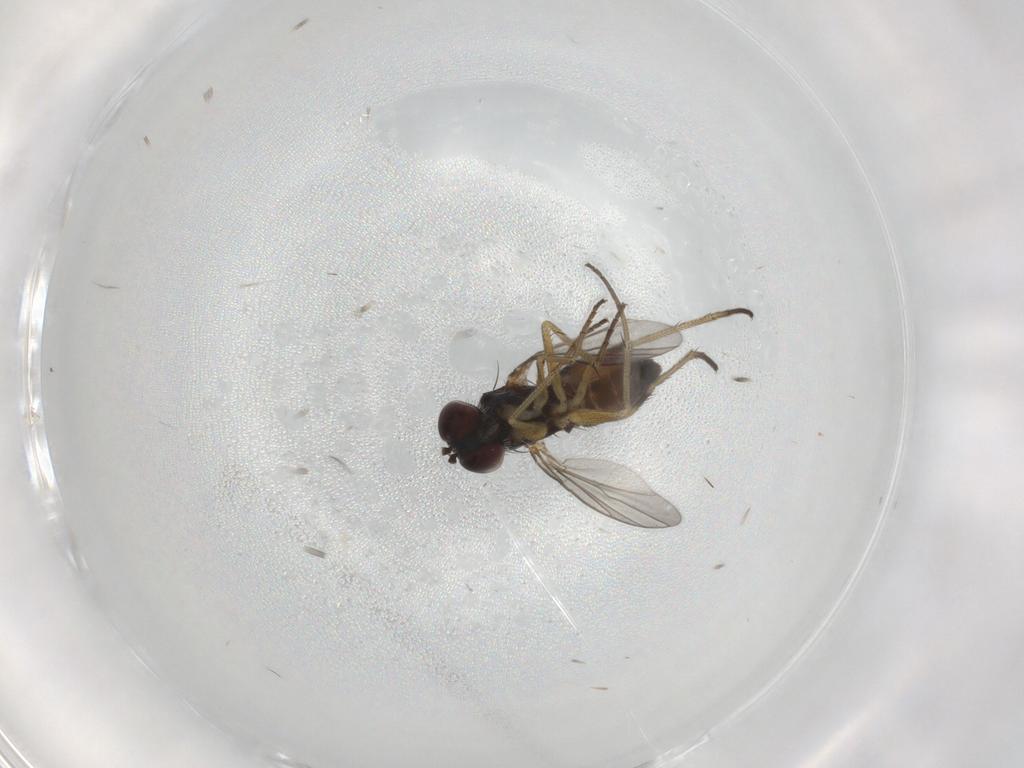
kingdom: Animalia
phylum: Arthropoda
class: Insecta
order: Diptera
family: Dolichopodidae
